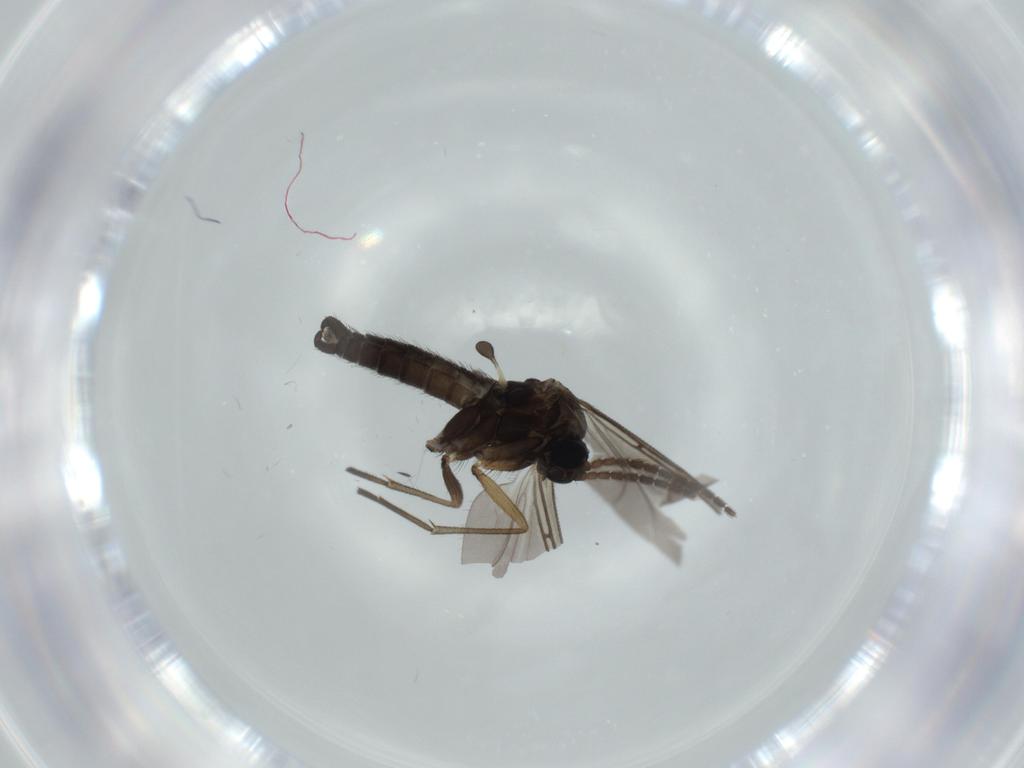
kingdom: Animalia
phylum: Arthropoda
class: Insecta
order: Diptera
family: Sciaridae
